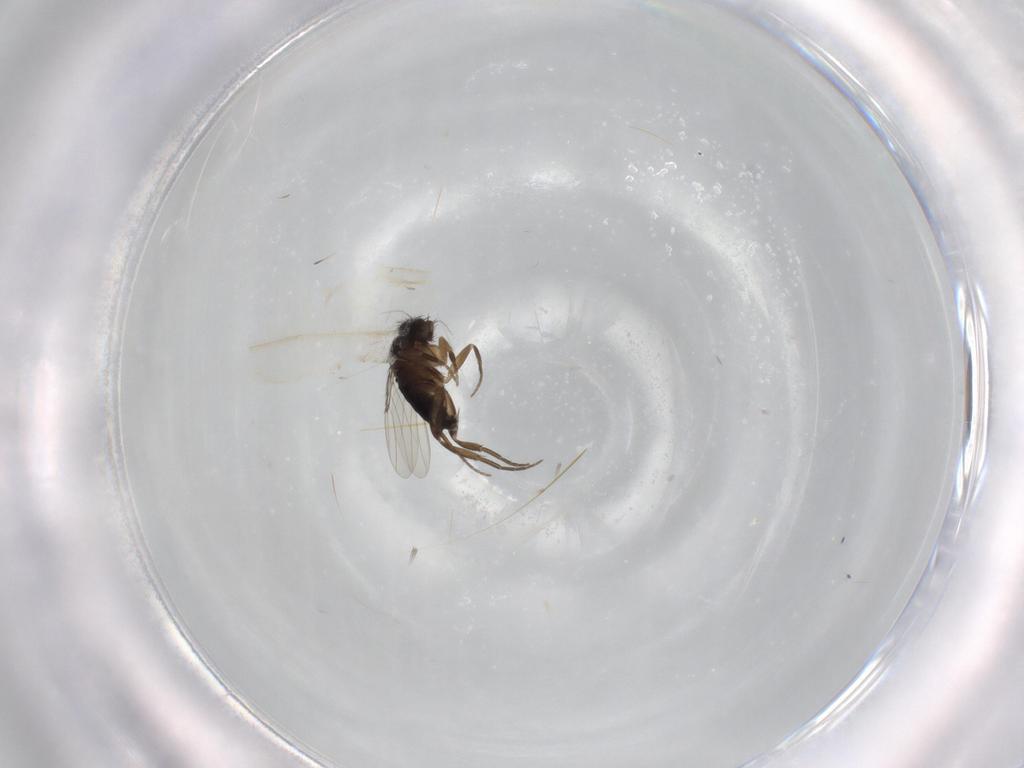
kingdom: Animalia
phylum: Arthropoda
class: Insecta
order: Diptera
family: Phoridae
